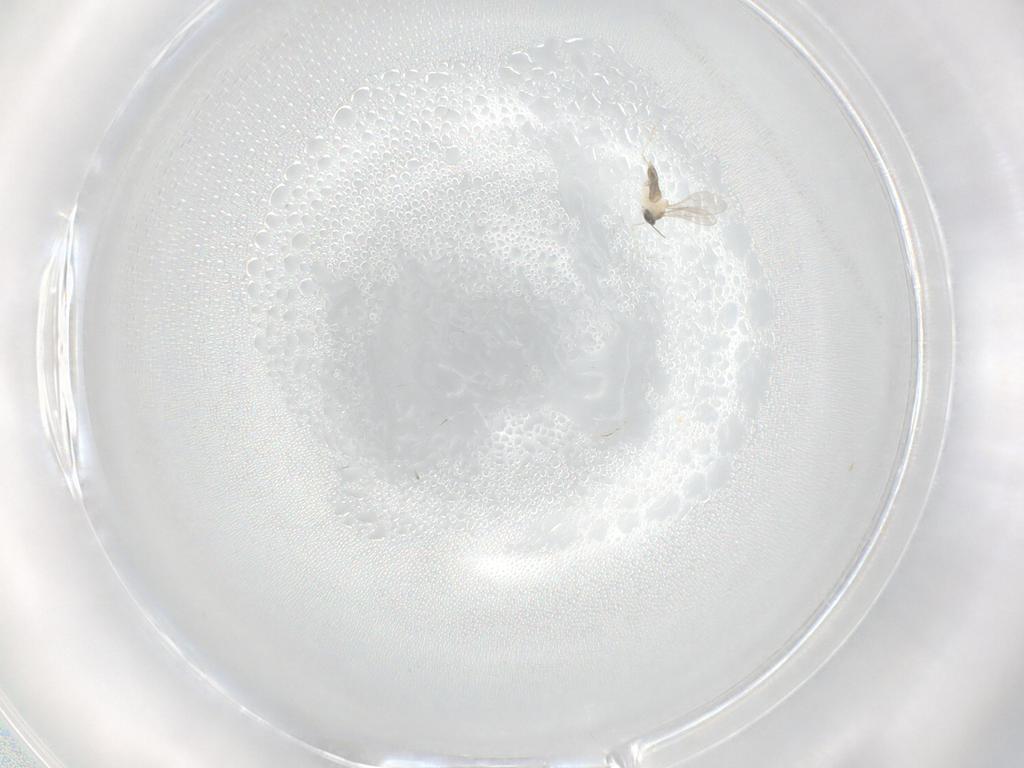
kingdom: Animalia
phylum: Arthropoda
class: Insecta
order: Diptera
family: Cecidomyiidae
